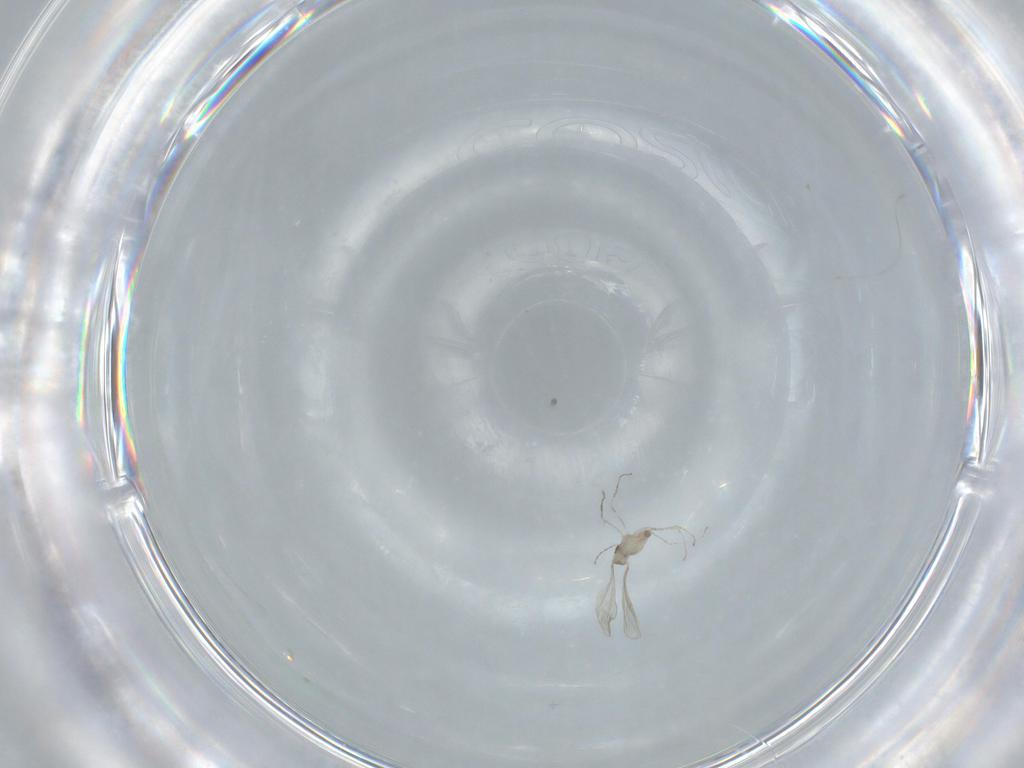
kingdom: Animalia
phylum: Arthropoda
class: Insecta
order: Diptera
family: Cecidomyiidae
